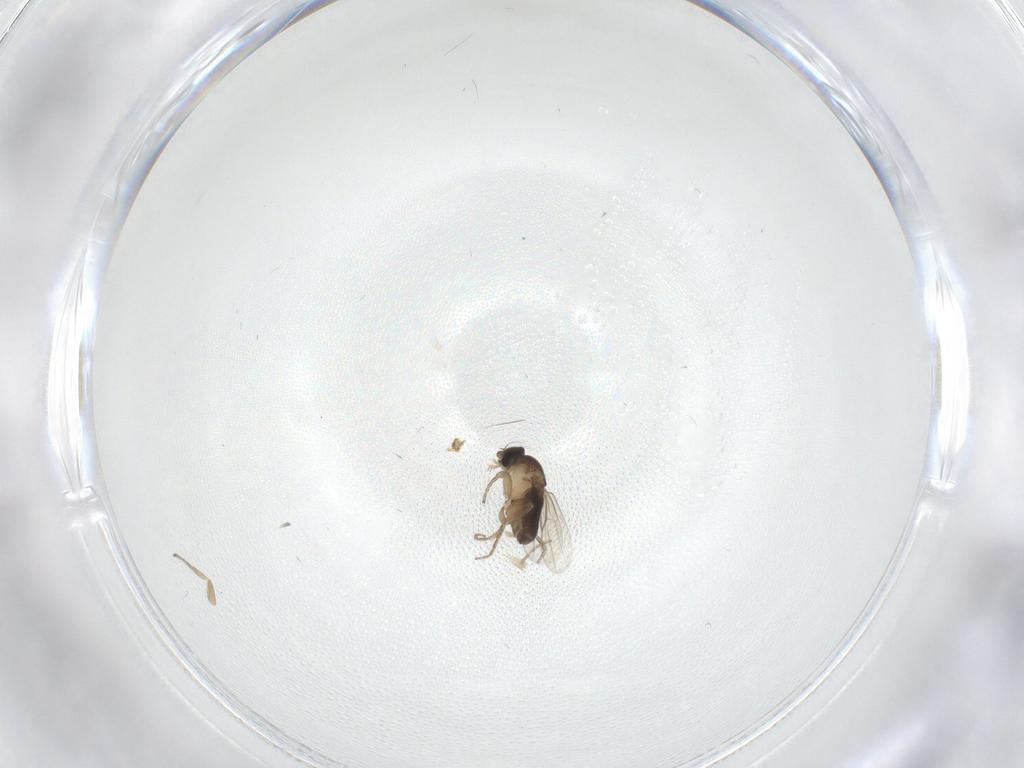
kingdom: Animalia
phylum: Arthropoda
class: Insecta
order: Diptera
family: Phoridae
